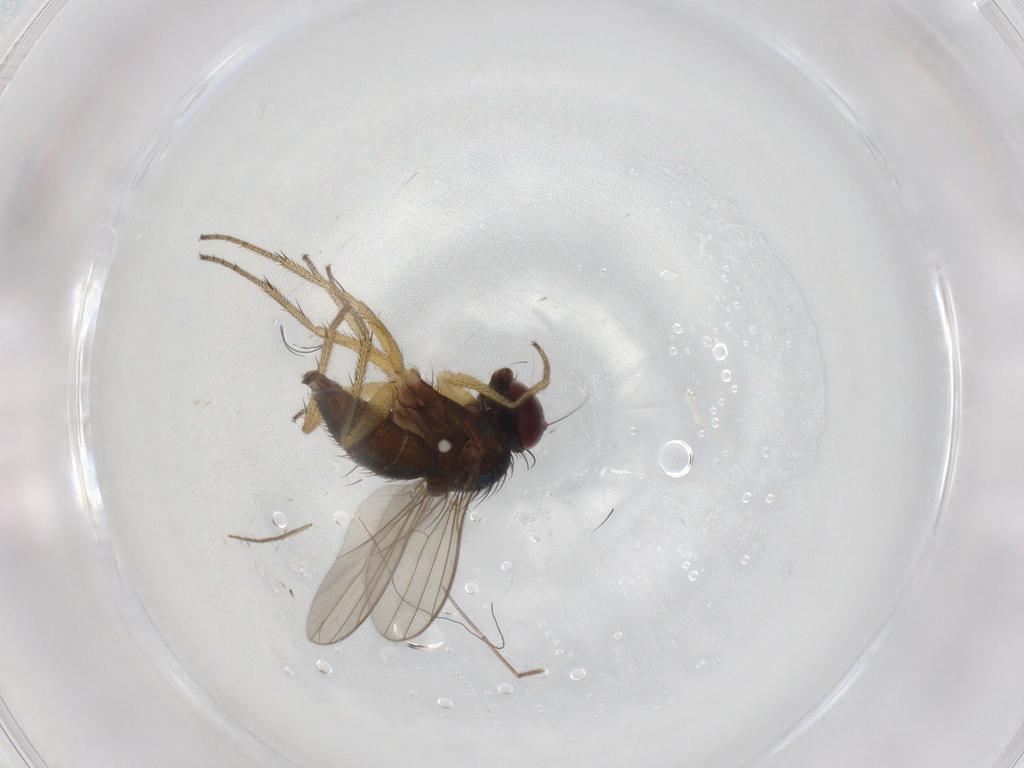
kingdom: Animalia
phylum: Arthropoda
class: Insecta
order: Diptera
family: Dolichopodidae
